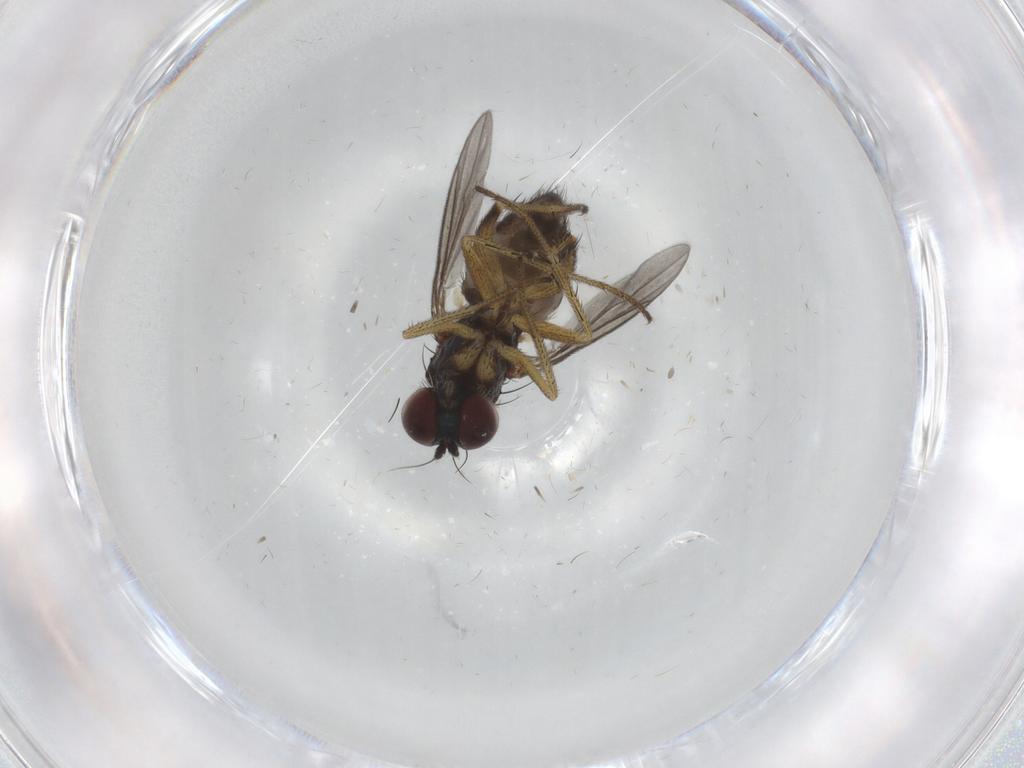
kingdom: Animalia
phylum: Arthropoda
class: Insecta
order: Diptera
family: Dolichopodidae
